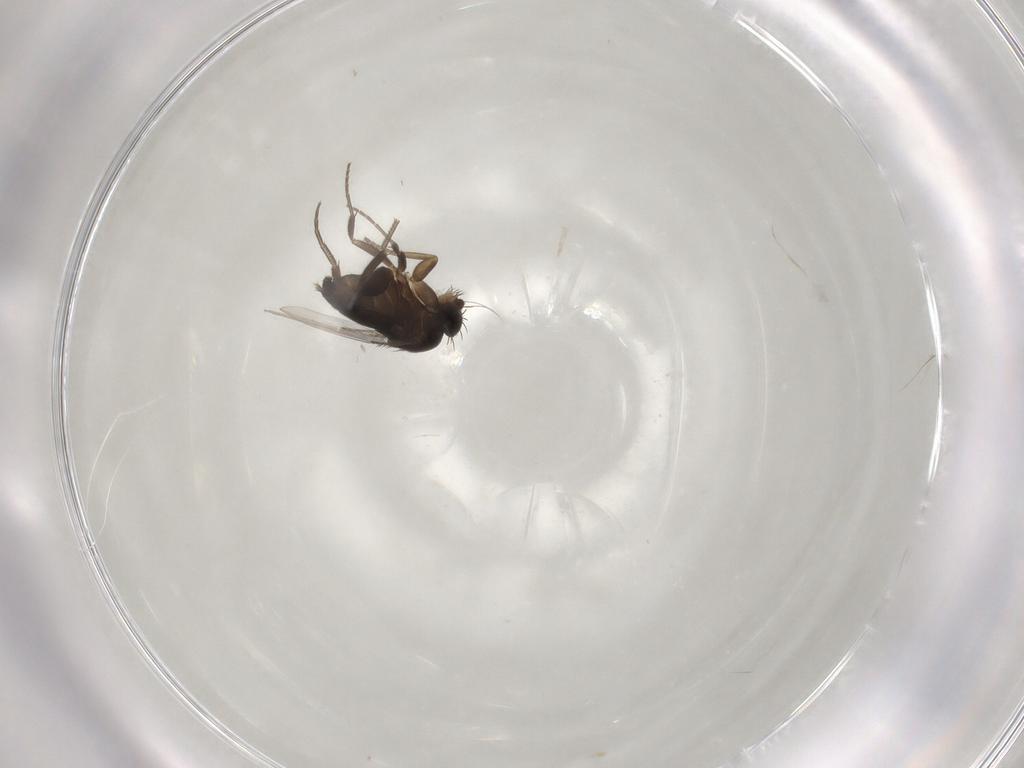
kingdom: Animalia
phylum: Arthropoda
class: Insecta
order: Diptera
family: Phoridae
